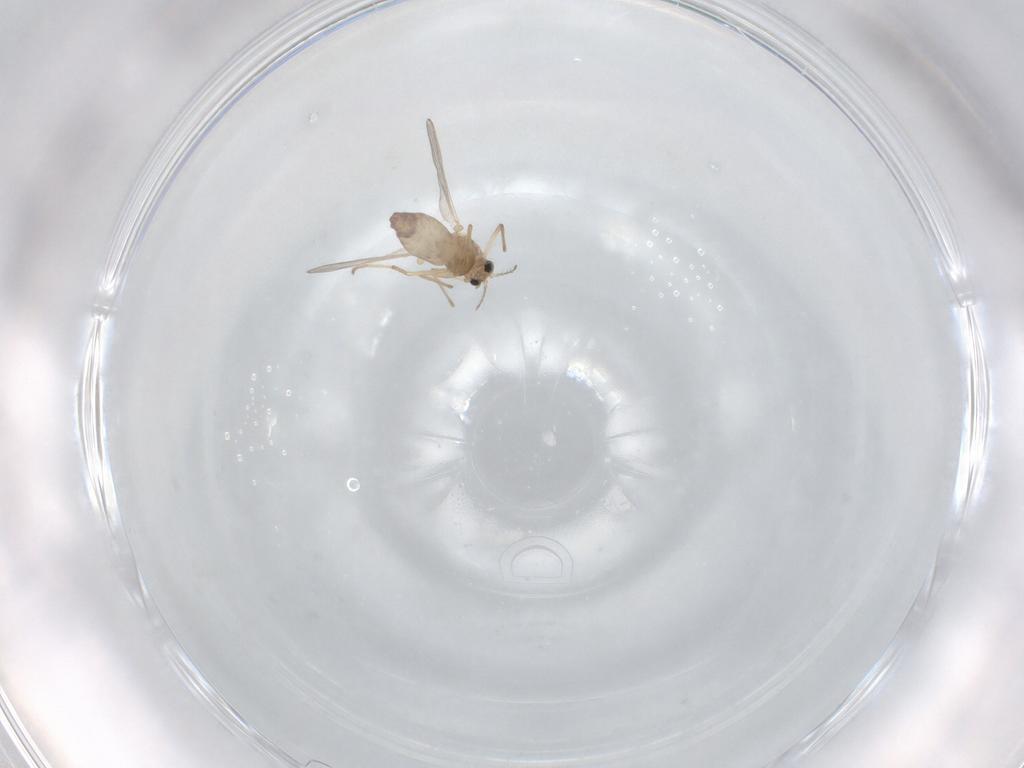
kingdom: Animalia
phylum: Arthropoda
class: Insecta
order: Diptera
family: Chironomidae
